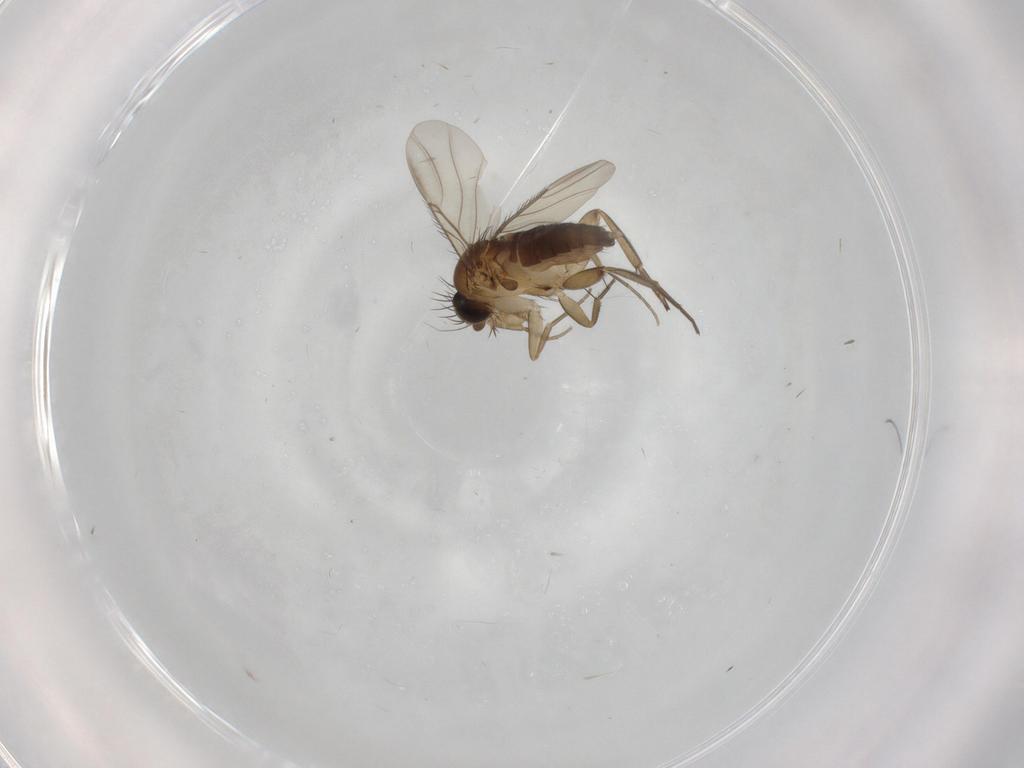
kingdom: Animalia
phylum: Arthropoda
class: Insecta
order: Diptera
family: Phoridae
